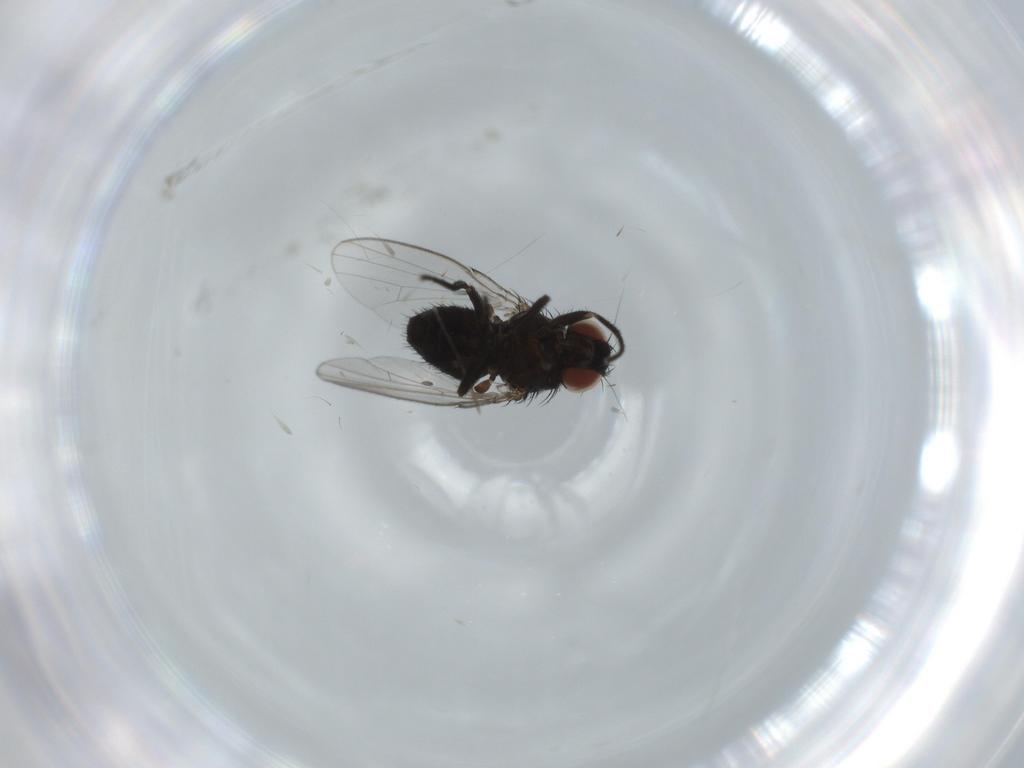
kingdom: Animalia
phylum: Arthropoda
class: Insecta
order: Diptera
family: Milichiidae
